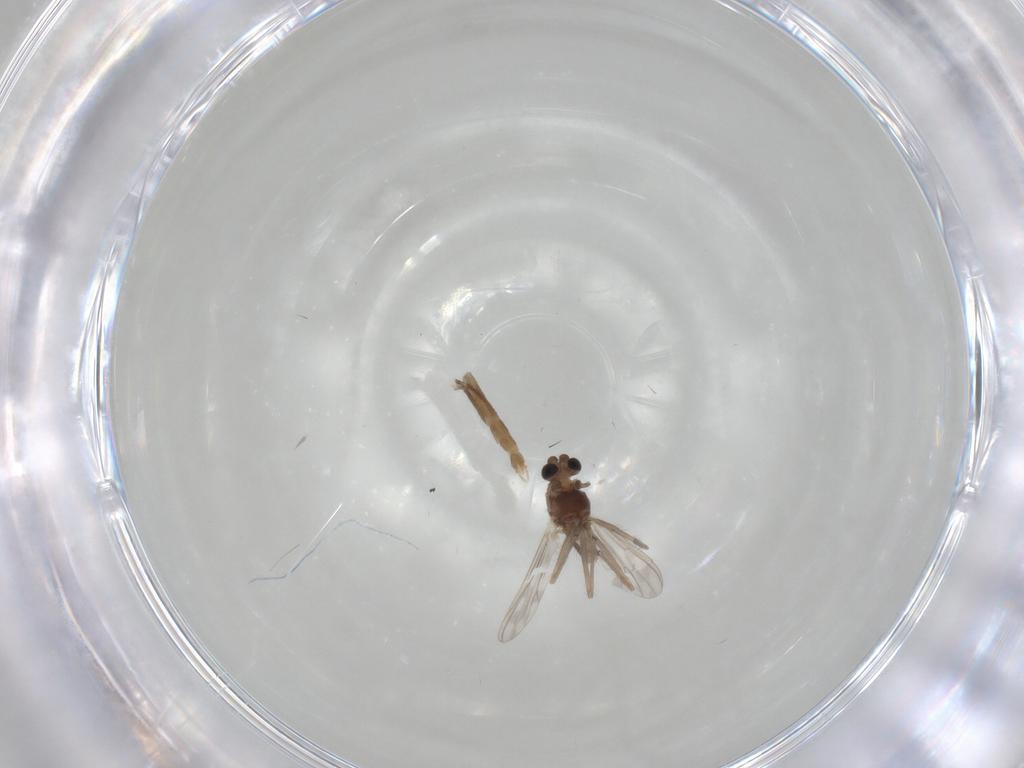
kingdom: Animalia
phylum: Arthropoda
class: Insecta
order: Diptera
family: Chironomidae
